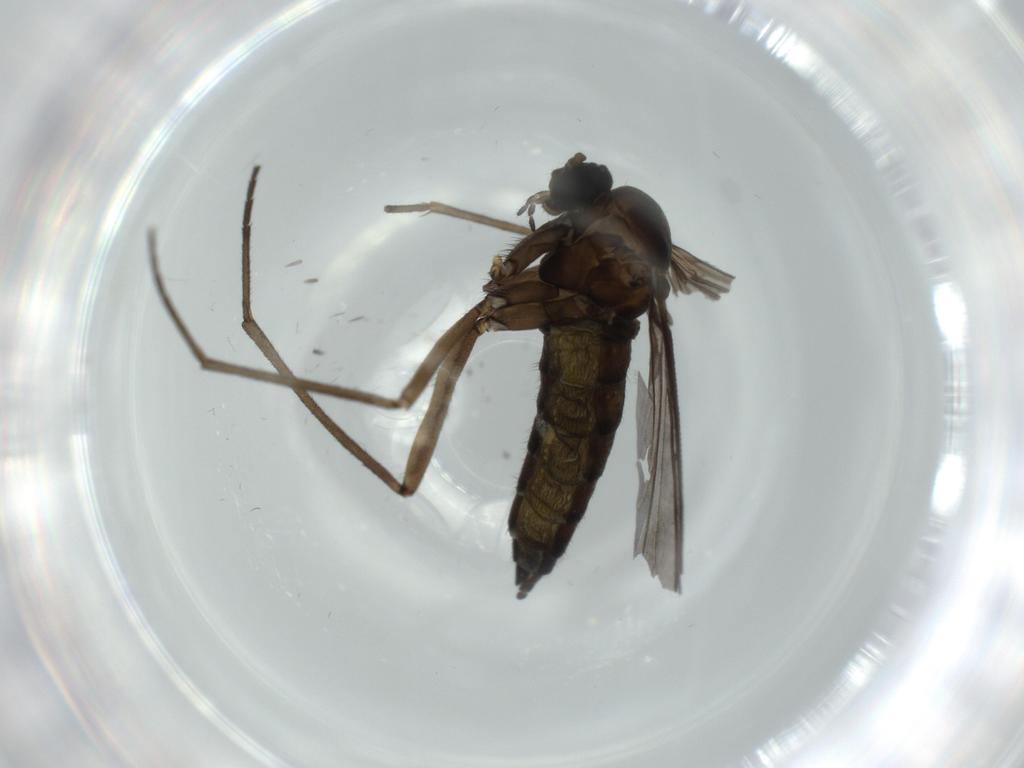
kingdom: Animalia
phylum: Arthropoda
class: Insecta
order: Diptera
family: Sciaridae
